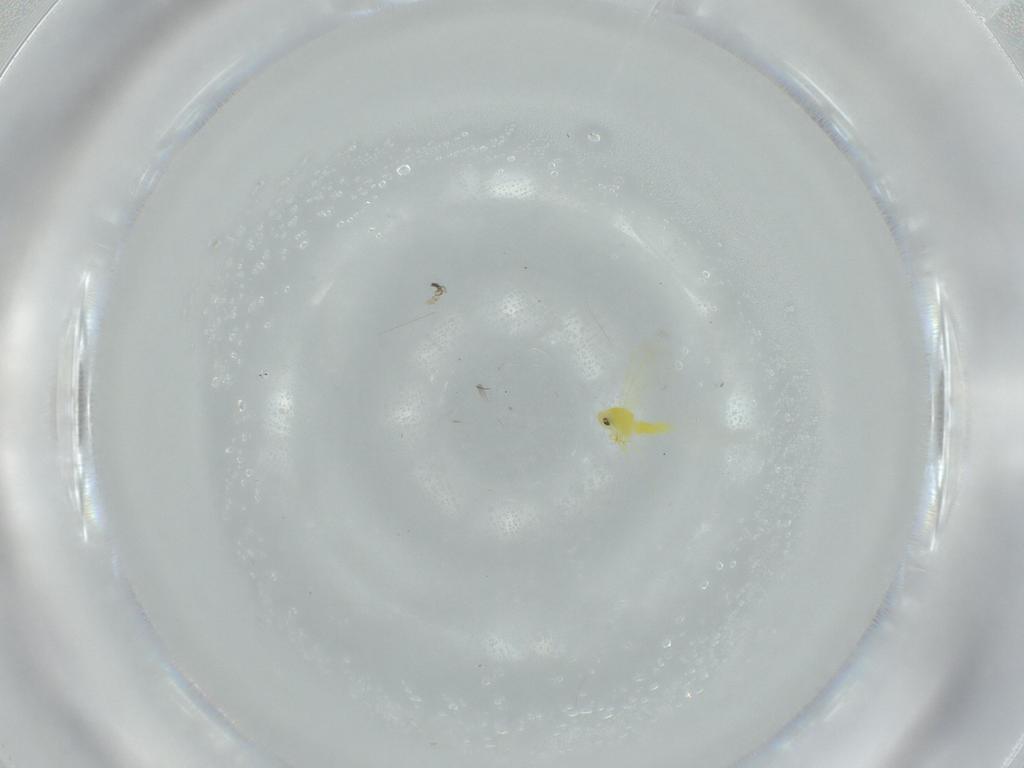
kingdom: Animalia
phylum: Arthropoda
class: Insecta
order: Hemiptera
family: Aleyrodidae
